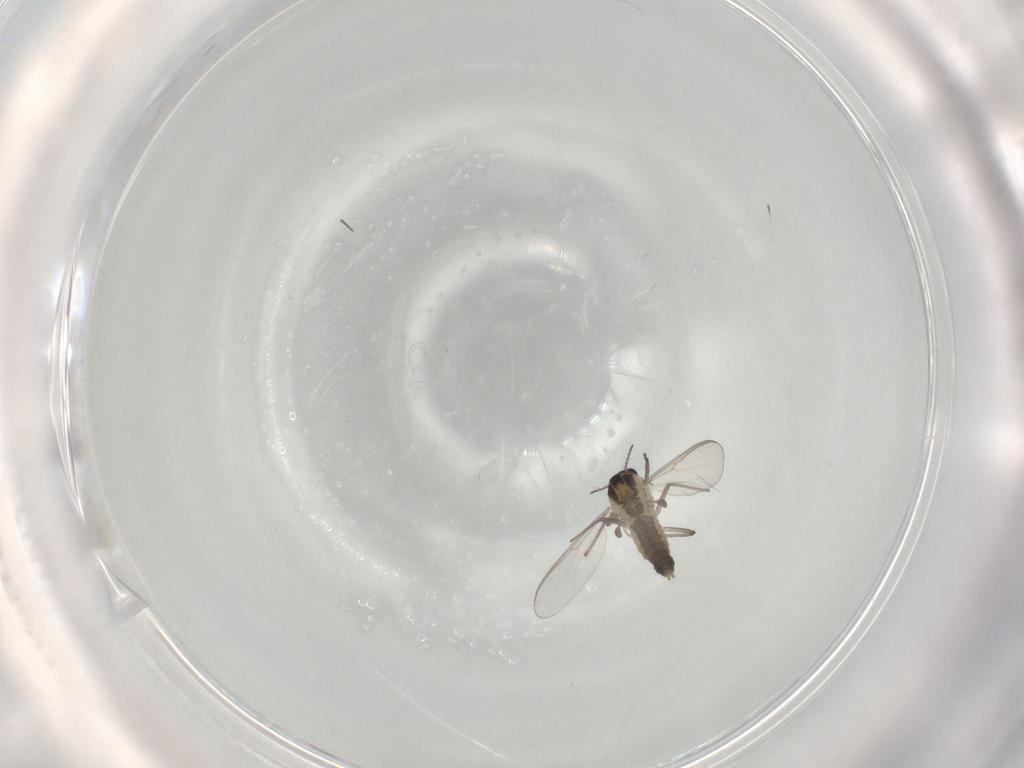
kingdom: Animalia
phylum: Arthropoda
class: Insecta
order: Diptera
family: Chironomidae
